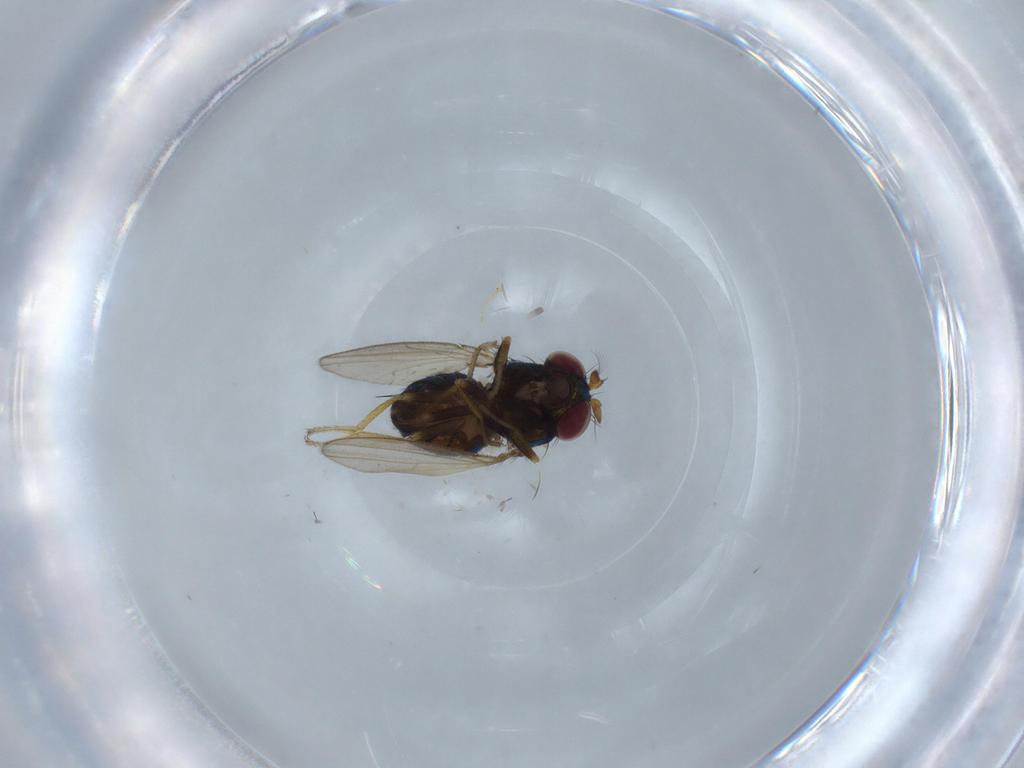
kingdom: Animalia
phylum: Arthropoda
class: Insecta
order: Diptera
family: Ephydridae
